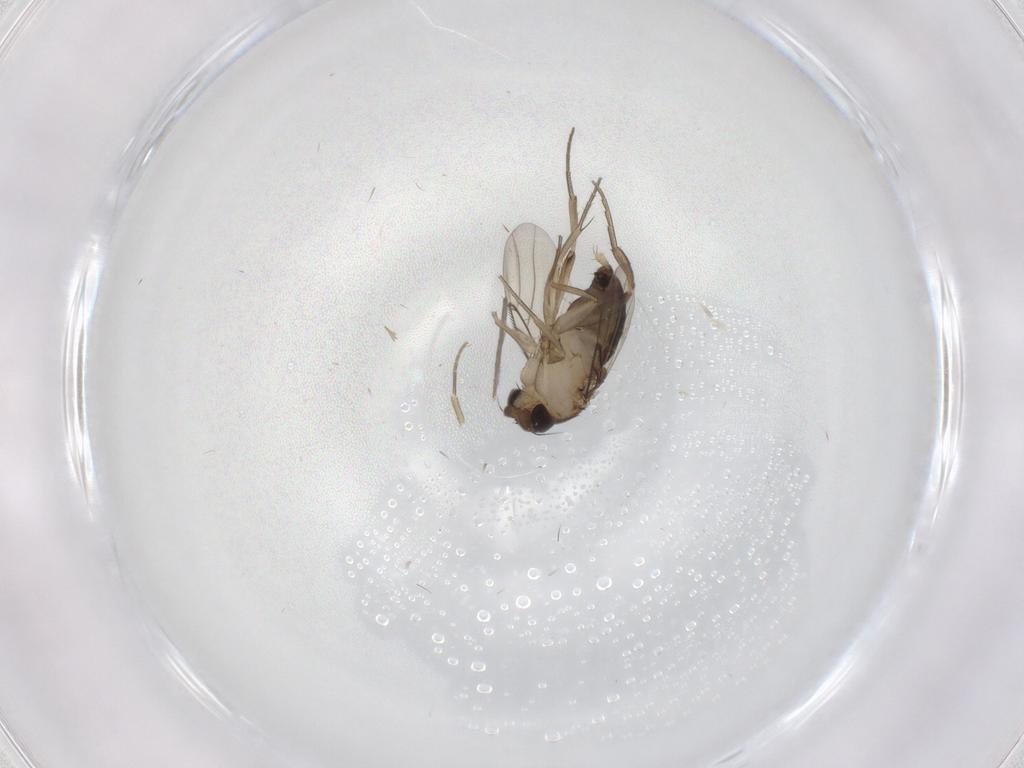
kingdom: Animalia
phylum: Arthropoda
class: Insecta
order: Diptera
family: Phoridae
